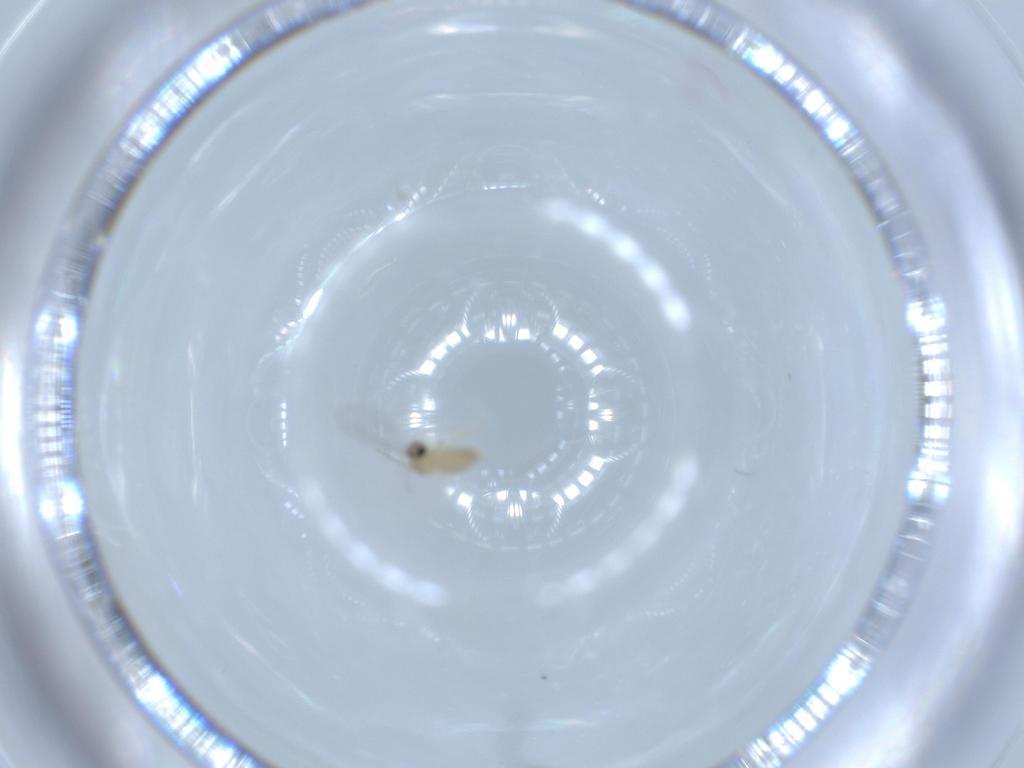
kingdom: Animalia
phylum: Arthropoda
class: Insecta
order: Diptera
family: Cecidomyiidae
